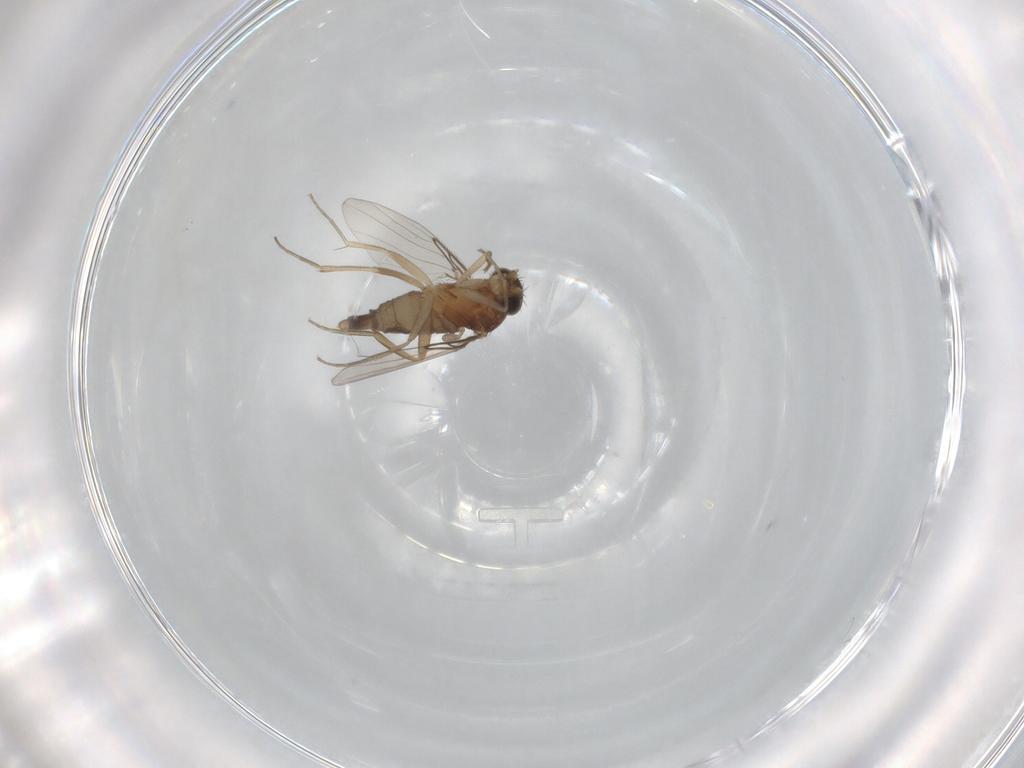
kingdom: Animalia
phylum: Arthropoda
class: Insecta
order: Diptera
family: Phoridae
